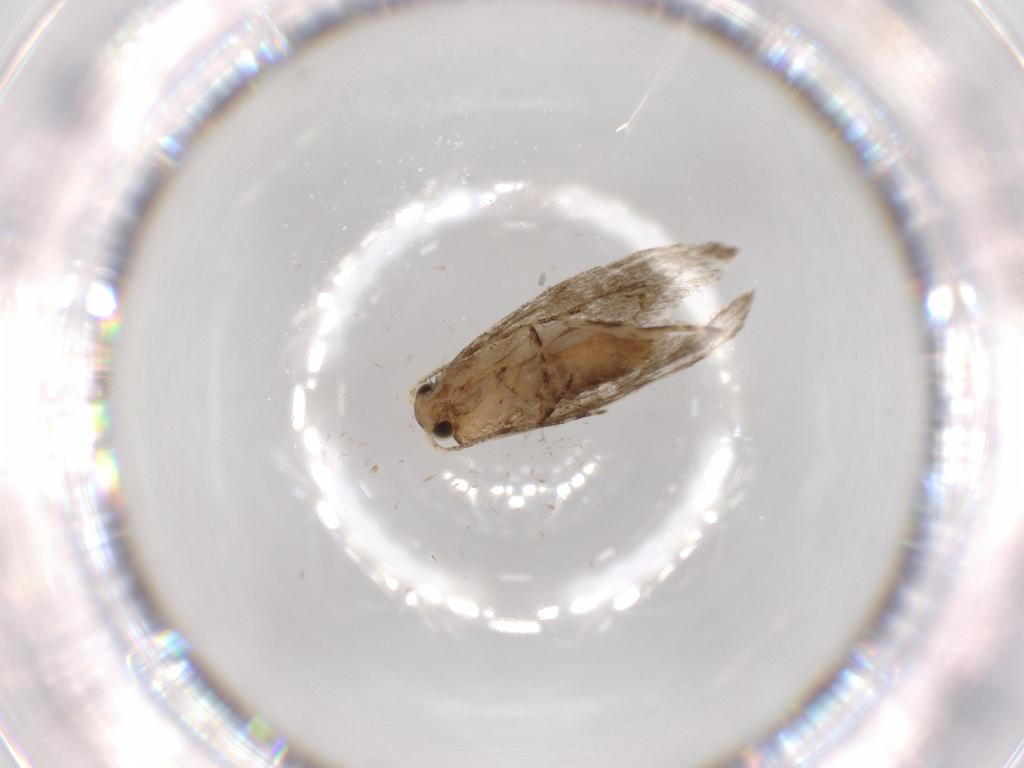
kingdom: Animalia
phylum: Arthropoda
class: Insecta
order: Lepidoptera
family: Tineidae
